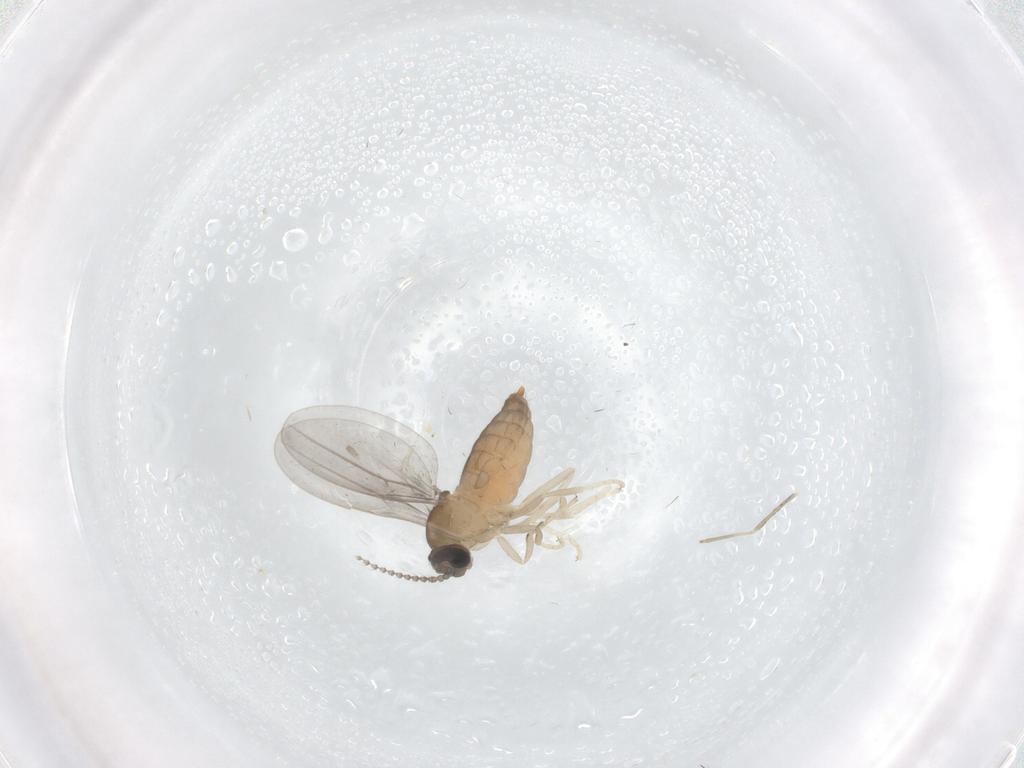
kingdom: Animalia
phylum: Arthropoda
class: Insecta
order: Diptera
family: Cecidomyiidae
